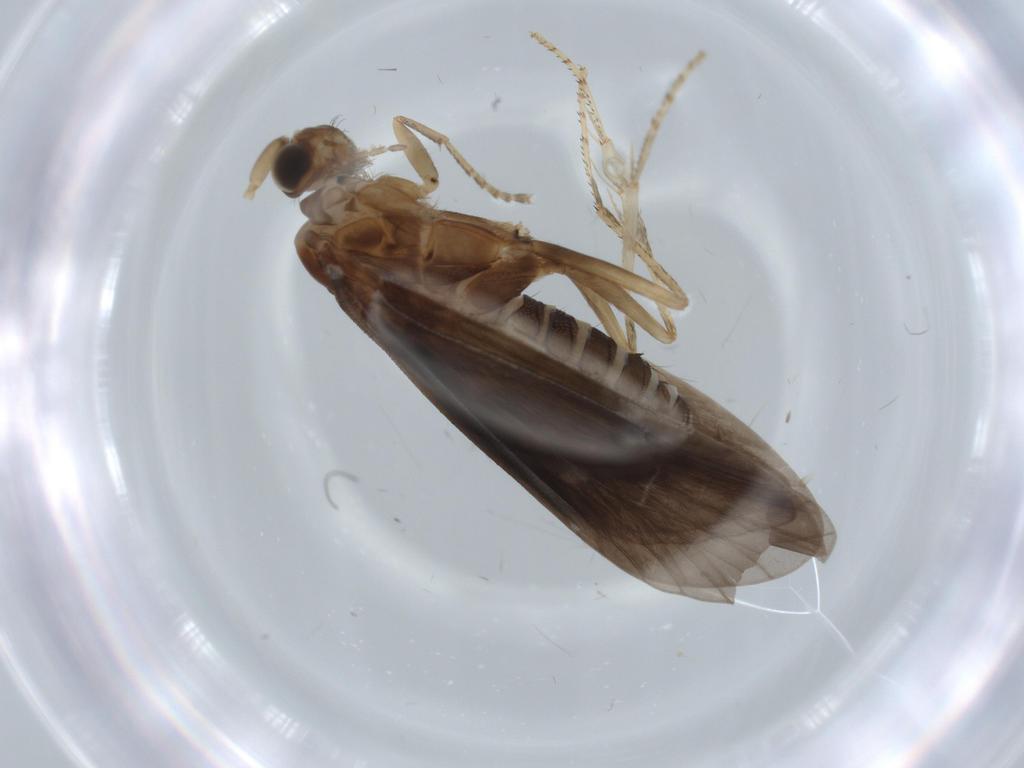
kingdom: Animalia
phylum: Arthropoda
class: Insecta
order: Trichoptera
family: Helicopsychidae
